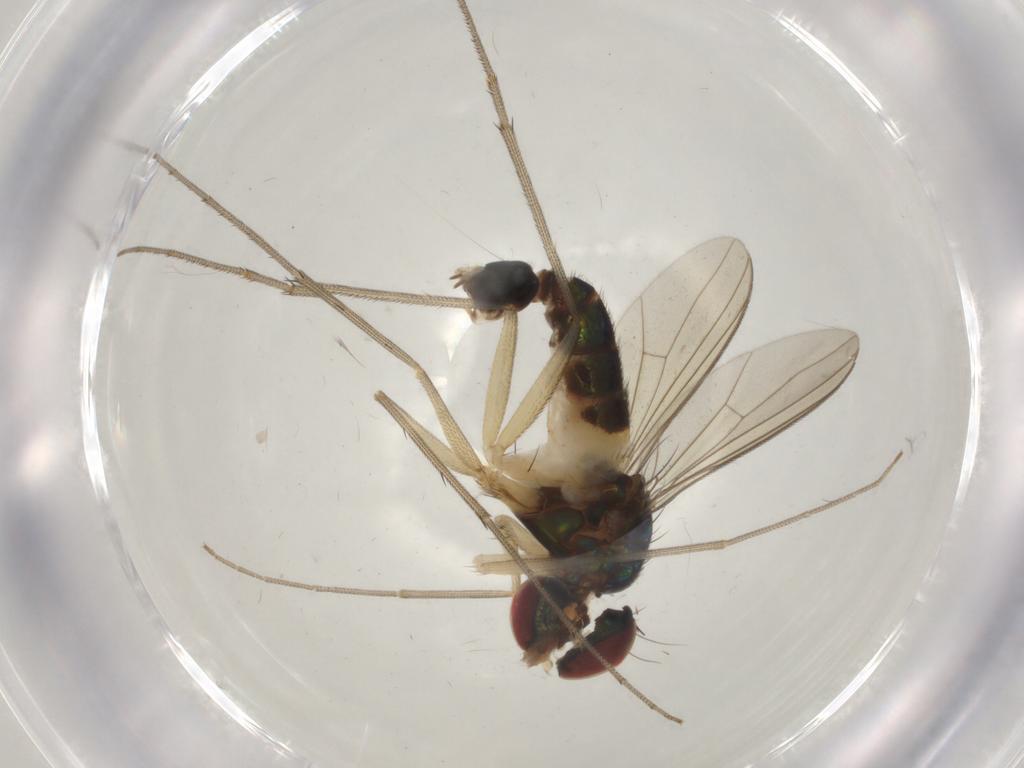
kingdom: Animalia
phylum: Arthropoda
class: Insecta
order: Diptera
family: Dolichopodidae
